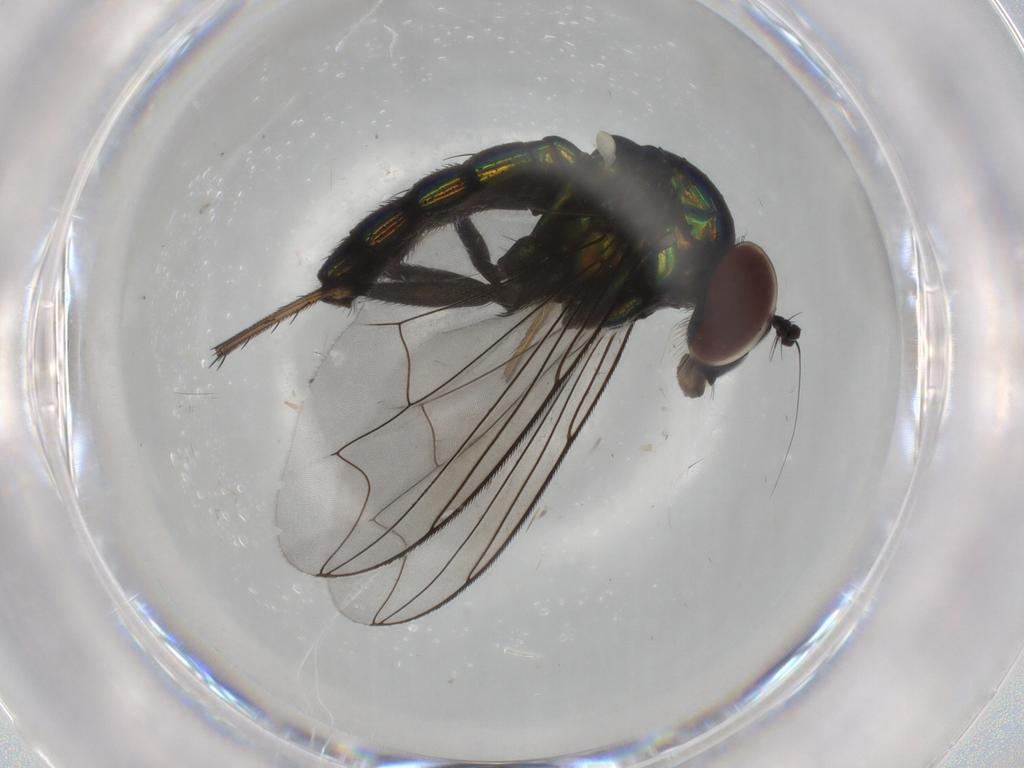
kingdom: Animalia
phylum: Arthropoda
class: Insecta
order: Diptera
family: Dolichopodidae
